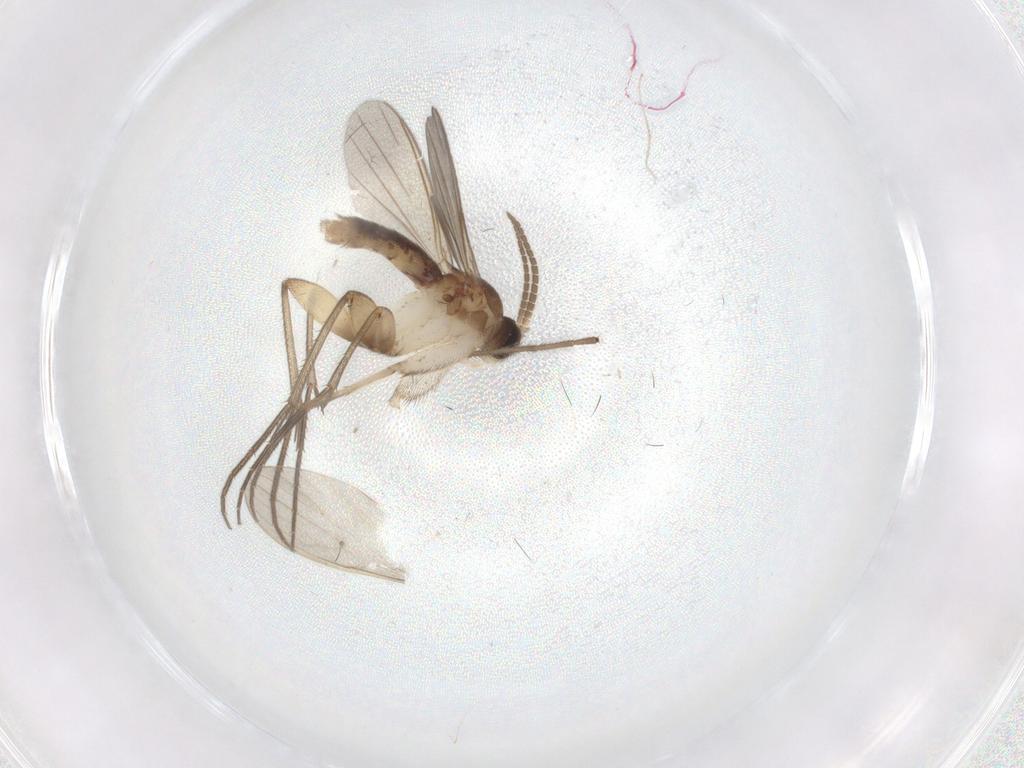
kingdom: Animalia
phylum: Arthropoda
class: Insecta
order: Diptera
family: Mycetophilidae
